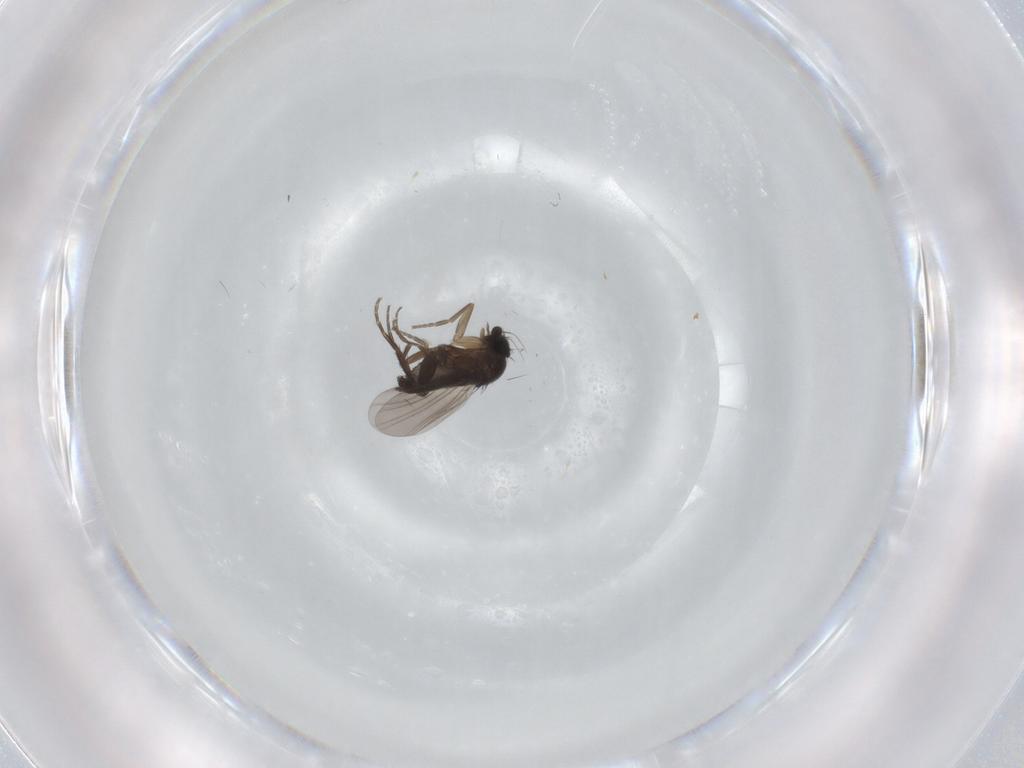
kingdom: Animalia
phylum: Arthropoda
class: Insecta
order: Diptera
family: Phoridae
